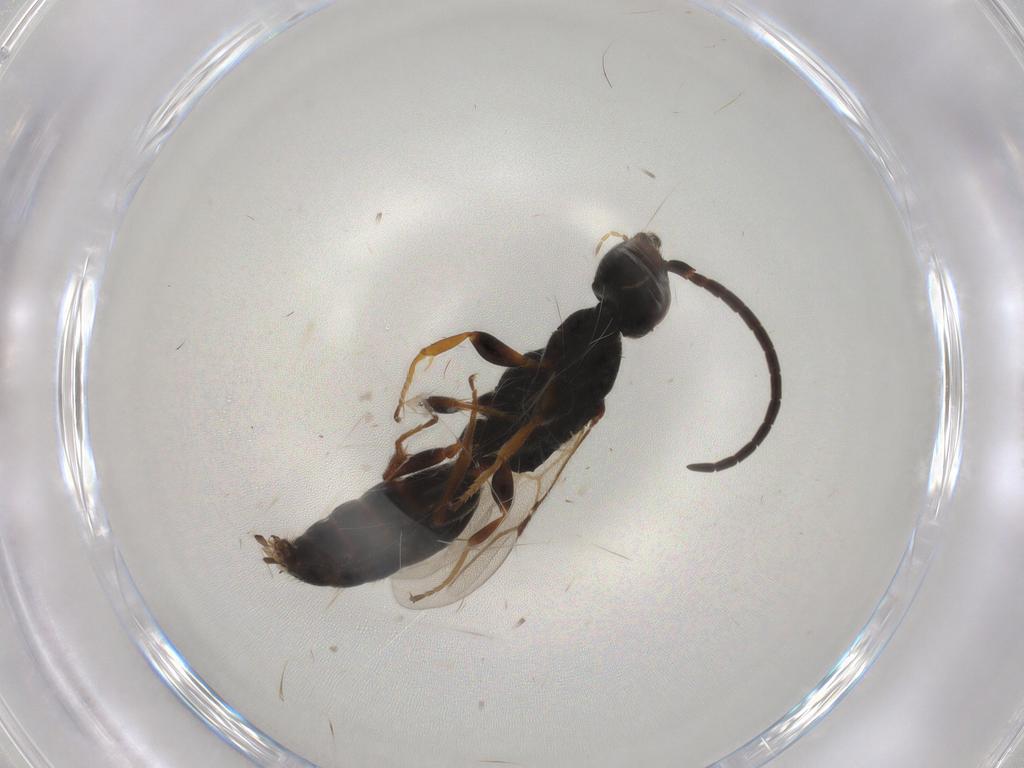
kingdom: Animalia
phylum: Arthropoda
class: Insecta
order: Hymenoptera
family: Bethylidae
